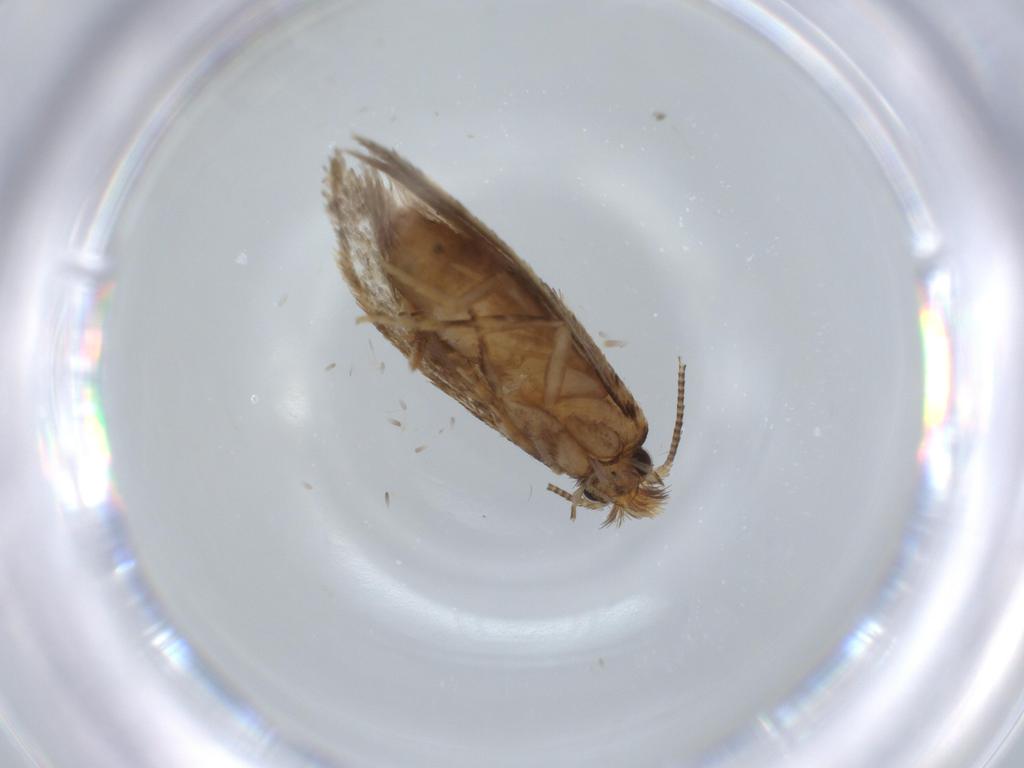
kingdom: Animalia
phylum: Arthropoda
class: Insecta
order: Lepidoptera
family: Tineidae
